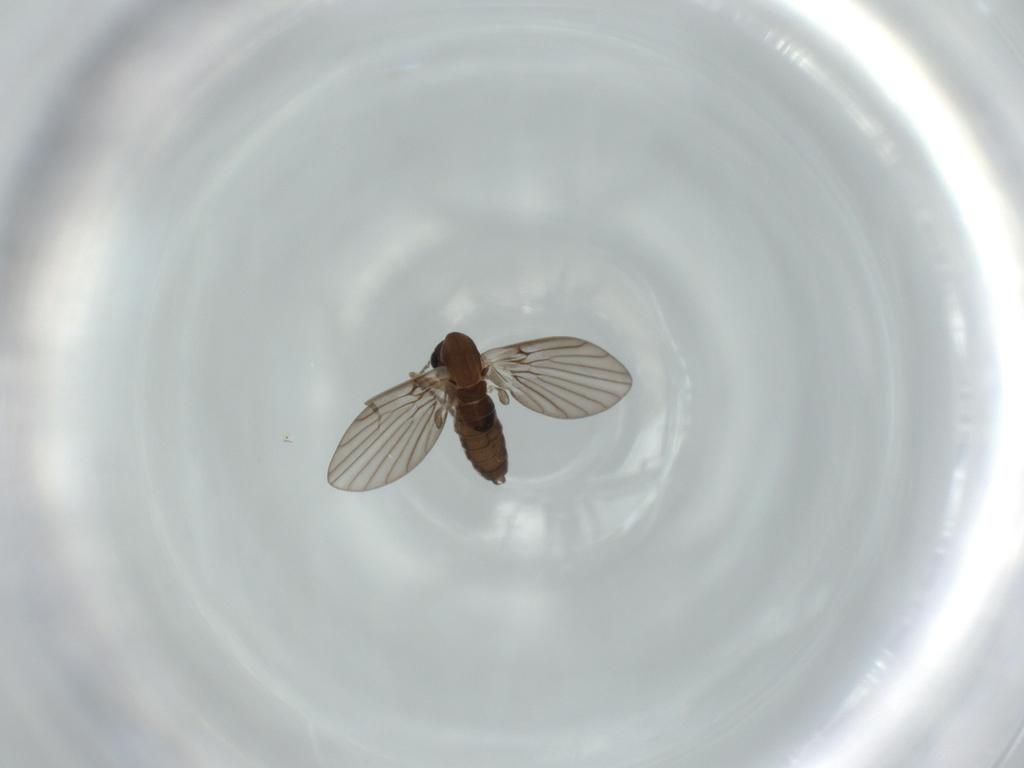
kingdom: Animalia
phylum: Arthropoda
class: Insecta
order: Diptera
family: Psychodidae
